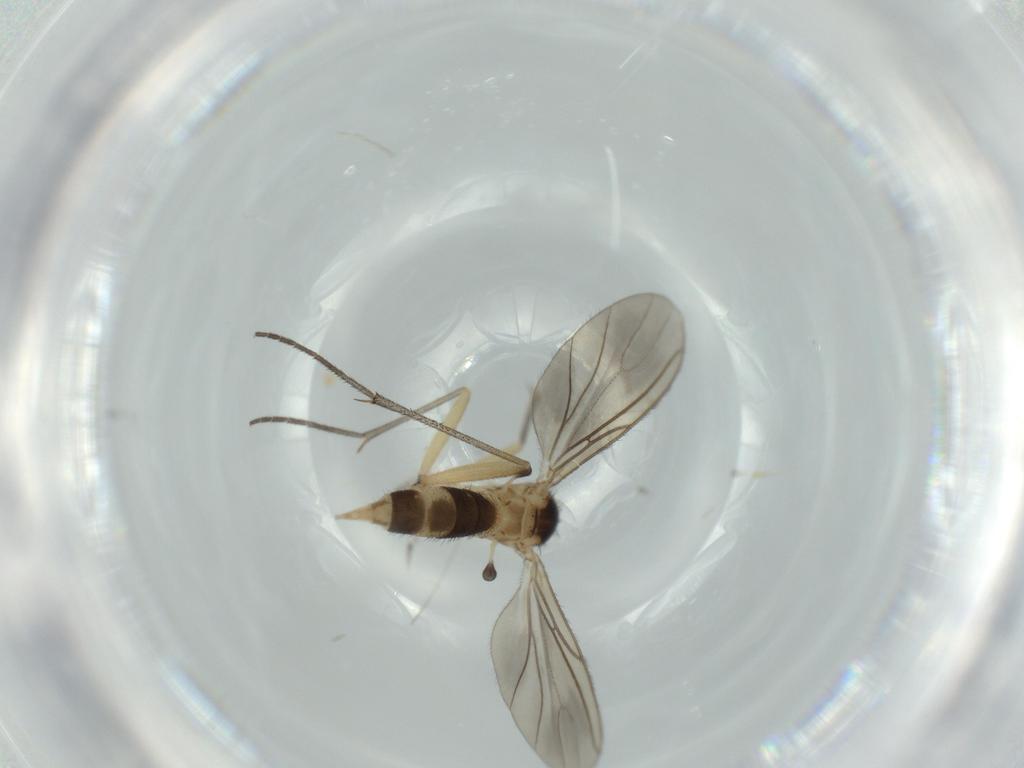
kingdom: Animalia
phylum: Arthropoda
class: Insecta
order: Diptera
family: Sciaridae
